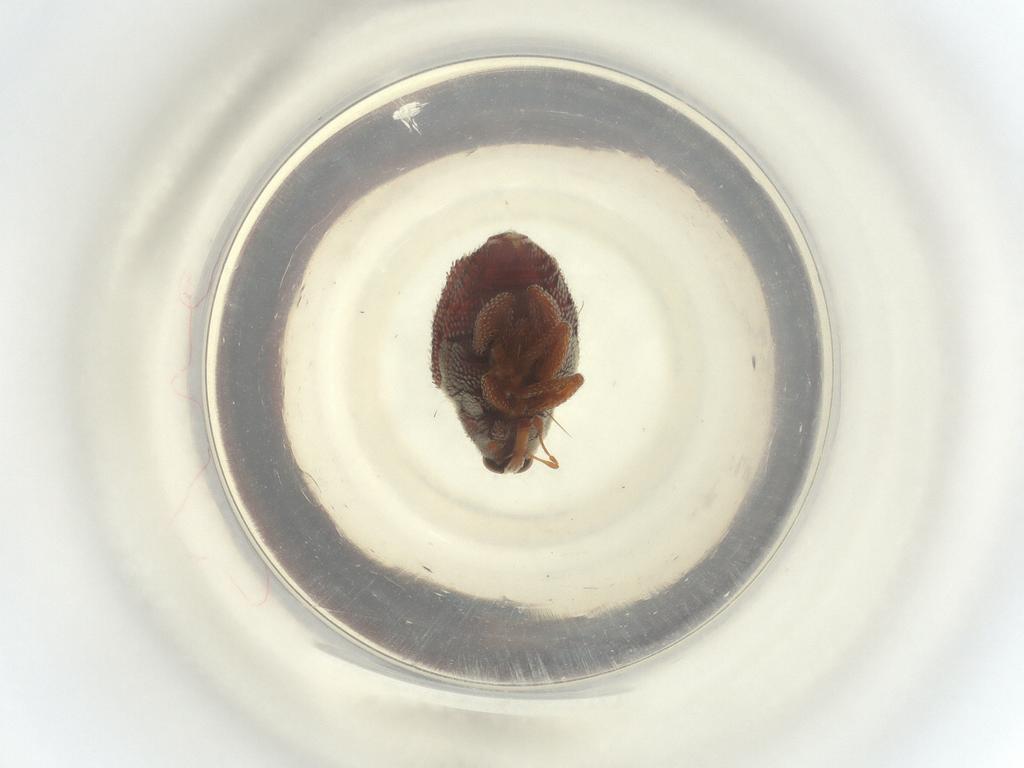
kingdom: Animalia
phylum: Arthropoda
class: Insecta
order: Coleoptera
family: Curculionidae
